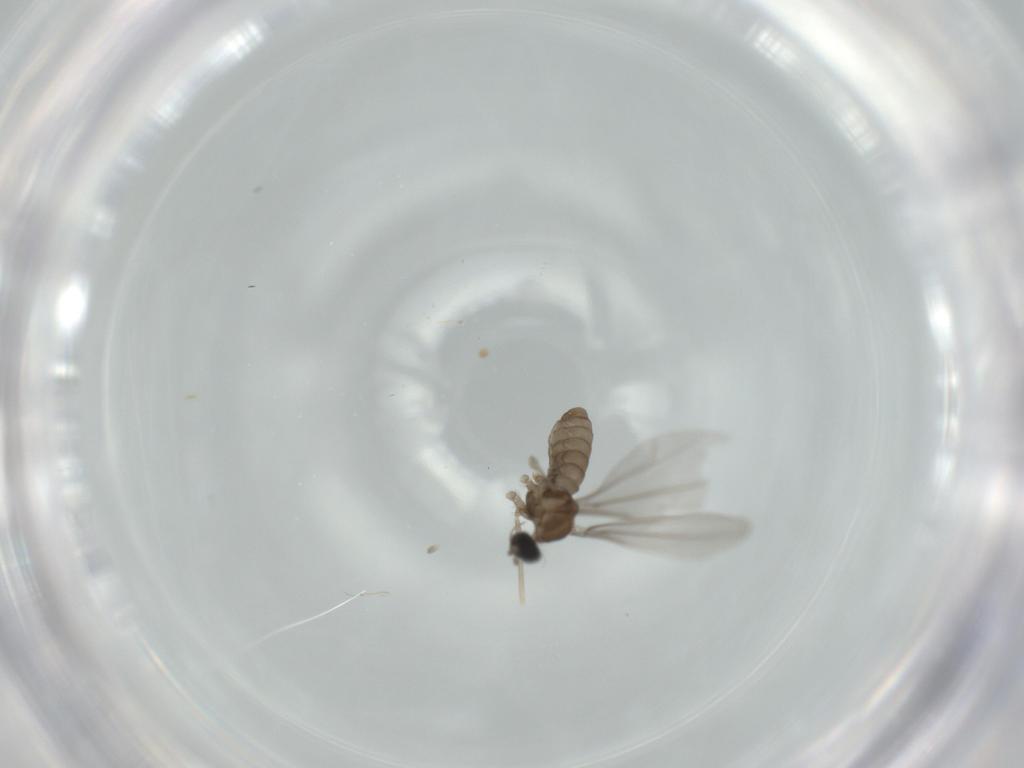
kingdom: Animalia
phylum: Arthropoda
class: Insecta
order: Diptera
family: Cecidomyiidae
